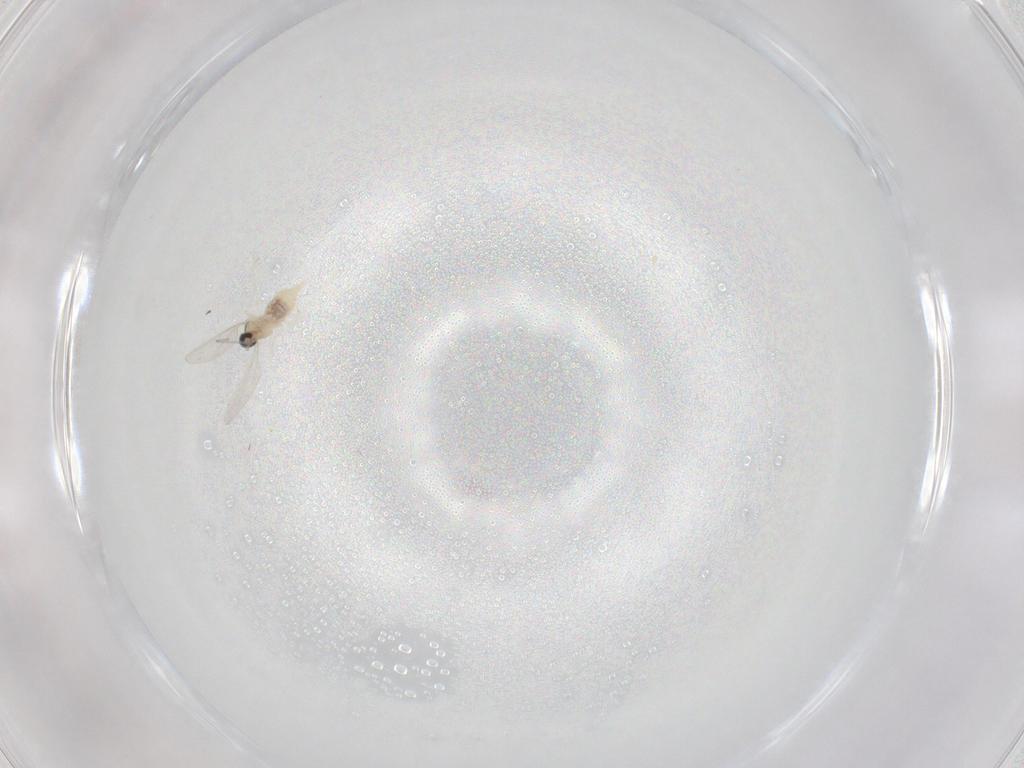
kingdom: Animalia
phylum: Arthropoda
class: Insecta
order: Diptera
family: Cecidomyiidae
